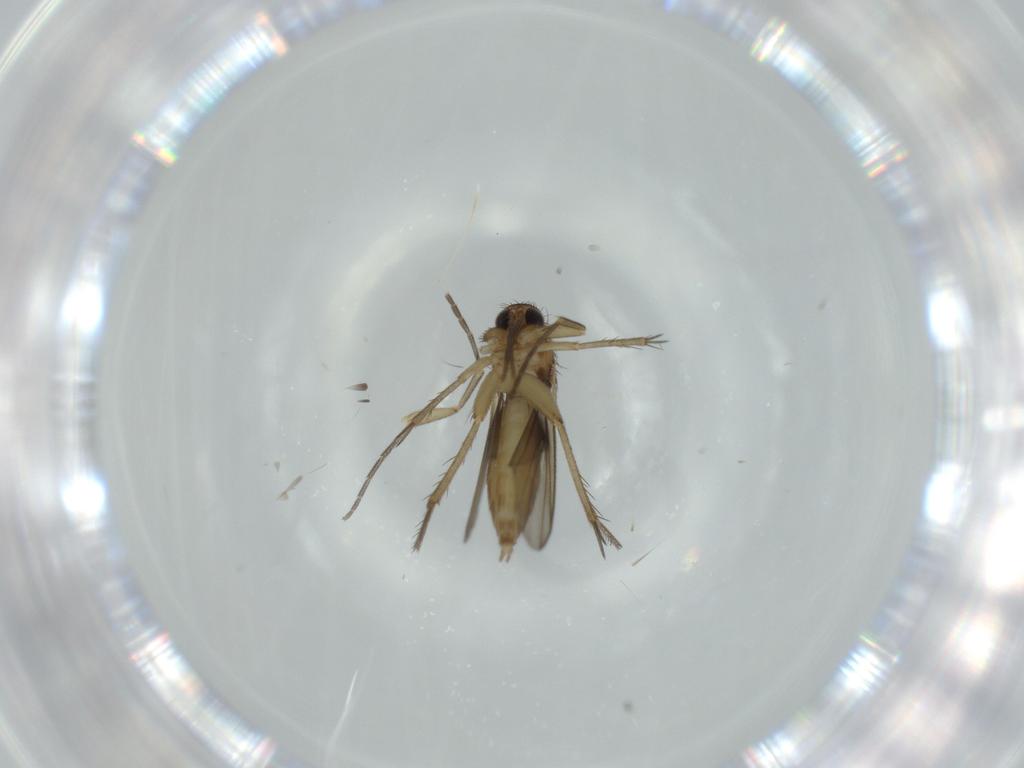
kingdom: Animalia
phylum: Arthropoda
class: Insecta
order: Diptera
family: Mycetophilidae
